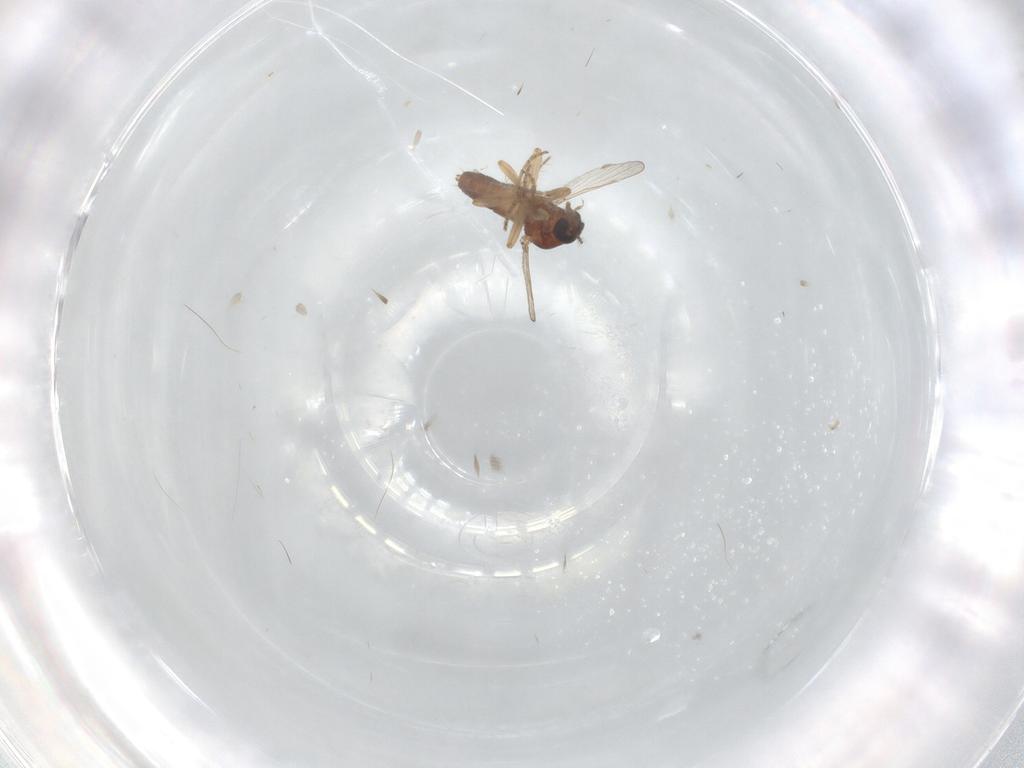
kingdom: Animalia
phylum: Arthropoda
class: Insecta
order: Diptera
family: Ceratopogonidae
